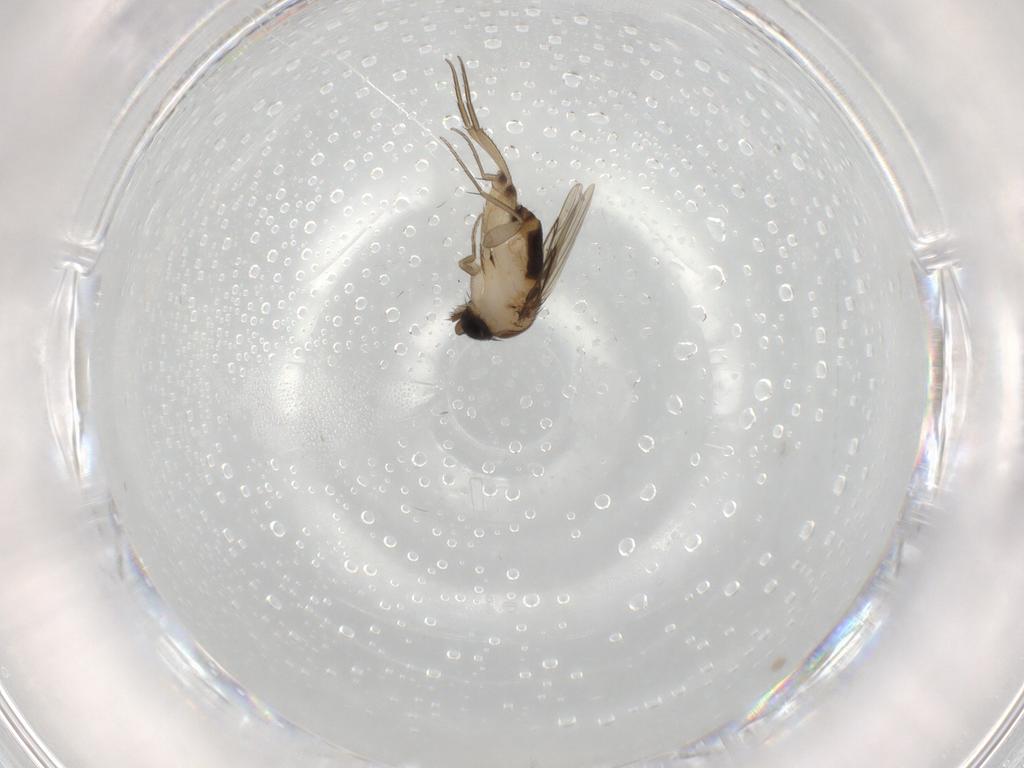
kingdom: Animalia
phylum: Arthropoda
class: Insecta
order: Diptera
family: Phoridae
